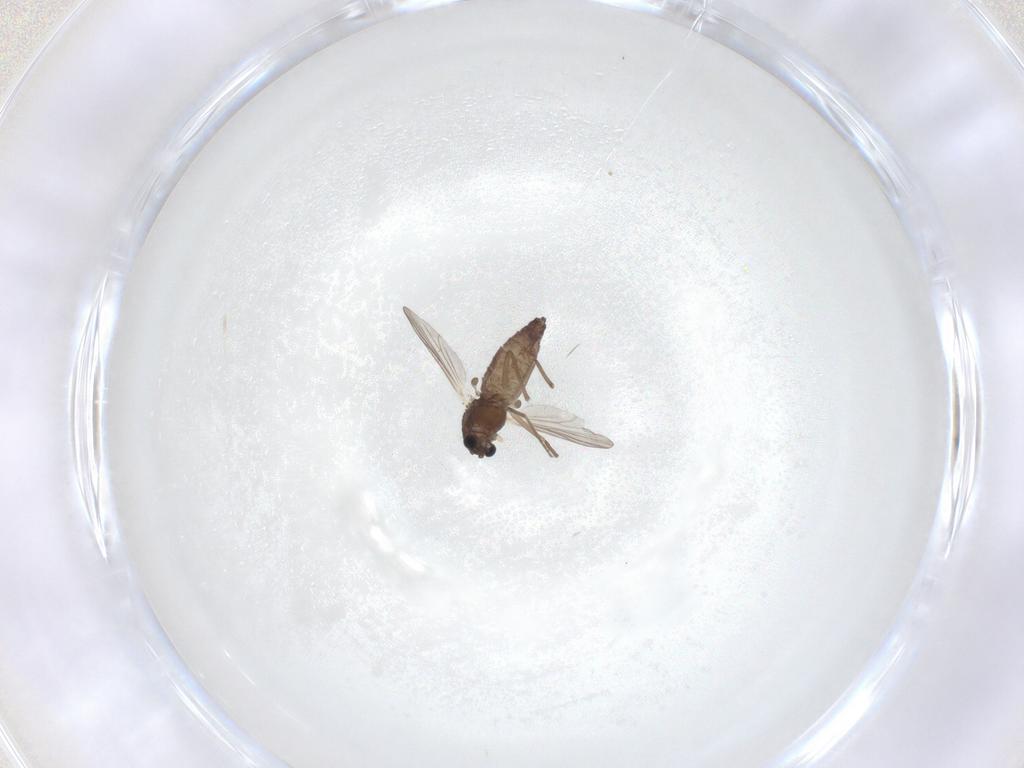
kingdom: Animalia
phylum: Arthropoda
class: Insecta
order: Diptera
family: Chironomidae
